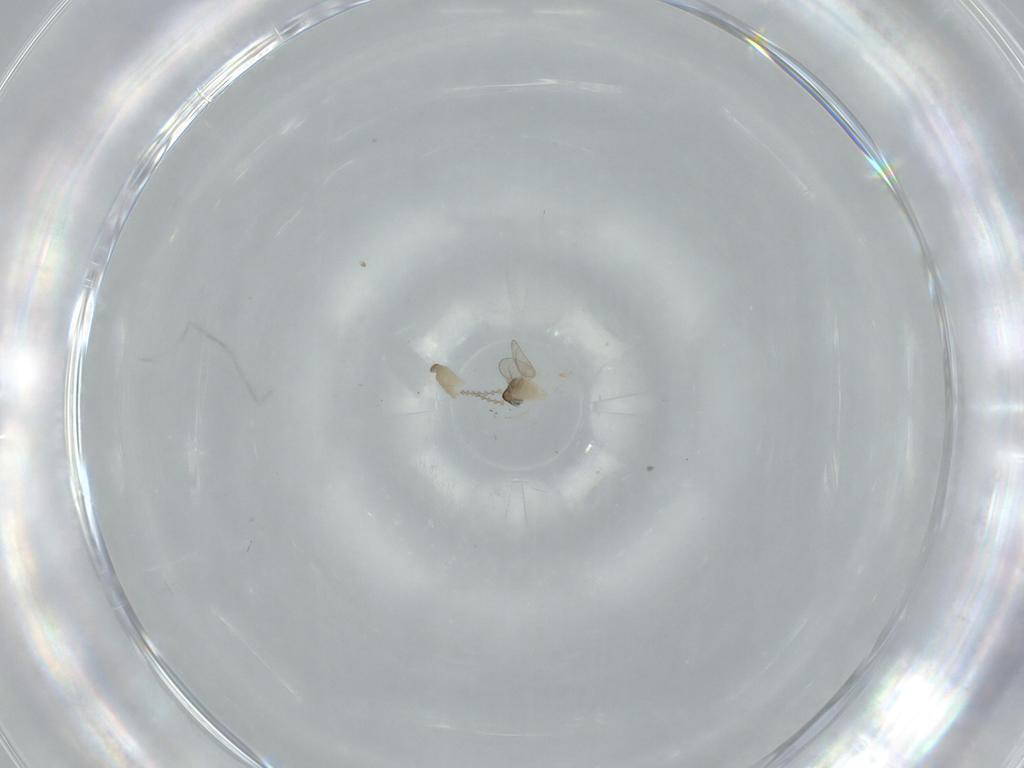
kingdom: Animalia
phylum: Arthropoda
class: Insecta
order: Diptera
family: Cecidomyiidae
